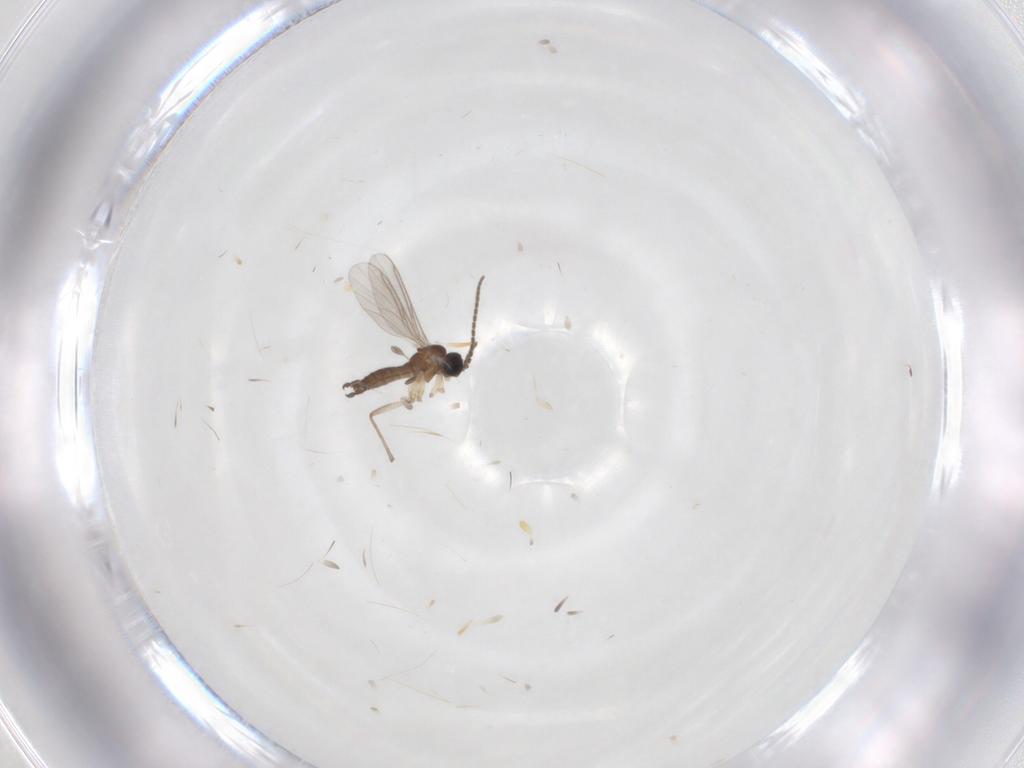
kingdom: Animalia
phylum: Arthropoda
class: Insecta
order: Diptera
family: Sciaridae
